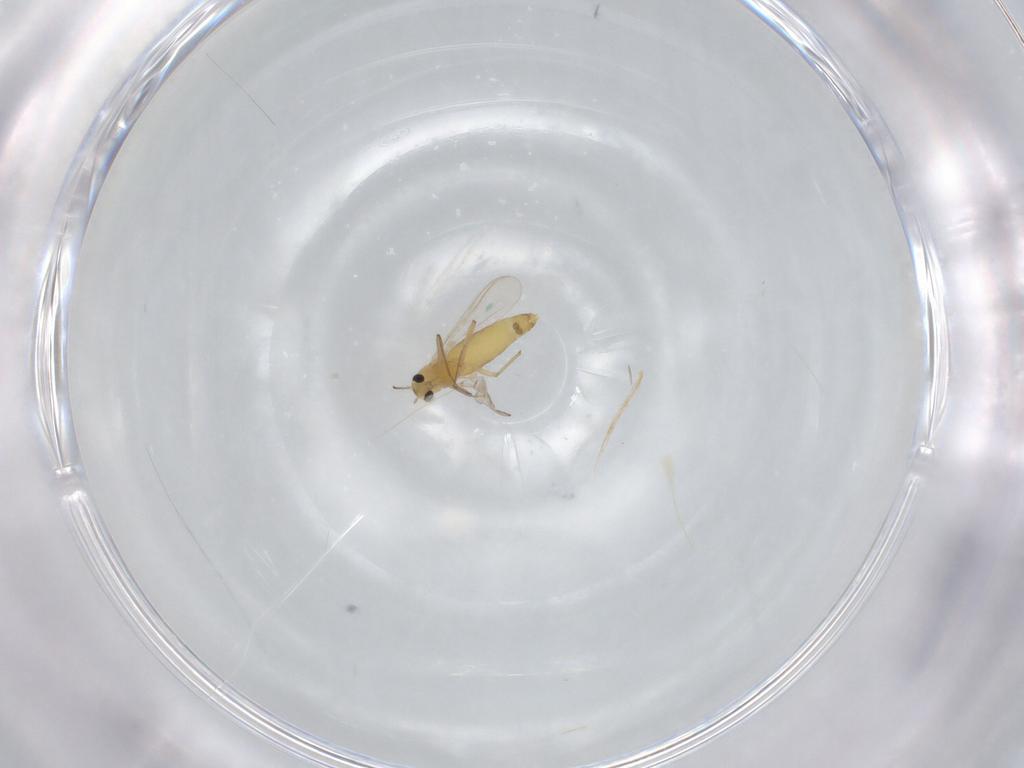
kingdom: Animalia
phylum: Arthropoda
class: Insecta
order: Diptera
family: Chironomidae
